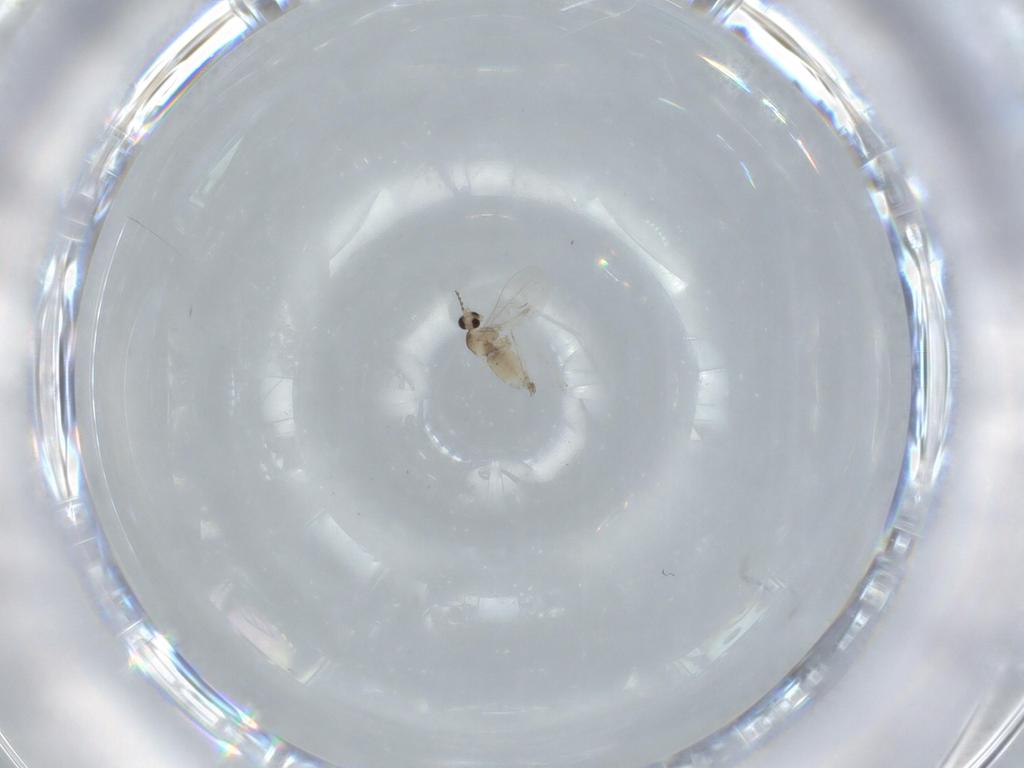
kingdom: Animalia
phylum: Arthropoda
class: Insecta
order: Diptera
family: Cecidomyiidae
